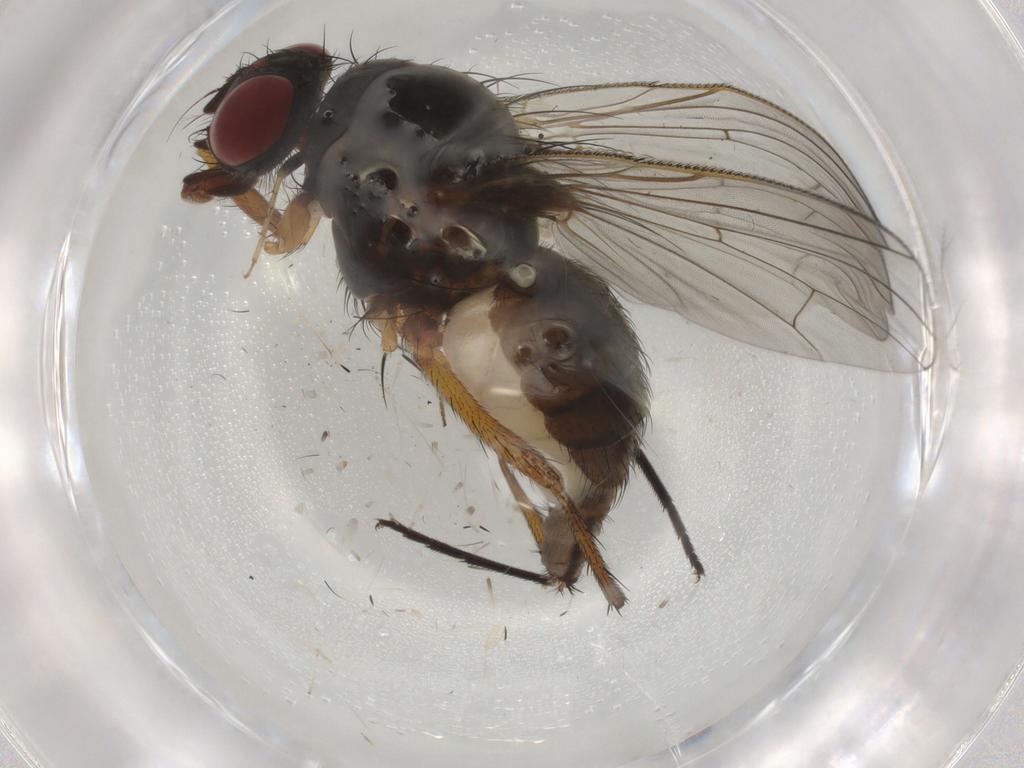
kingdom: Animalia
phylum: Arthropoda
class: Insecta
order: Diptera
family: Anthomyiidae
